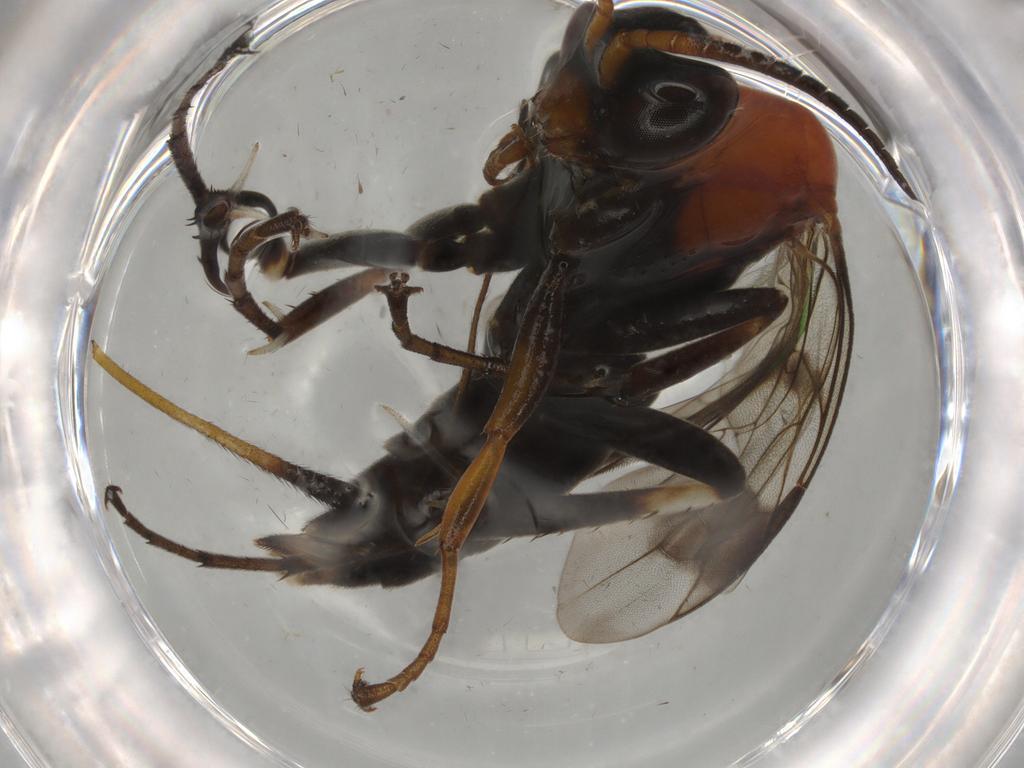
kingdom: Animalia
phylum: Arthropoda
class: Insecta
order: Hymenoptera
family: Pompilidae
